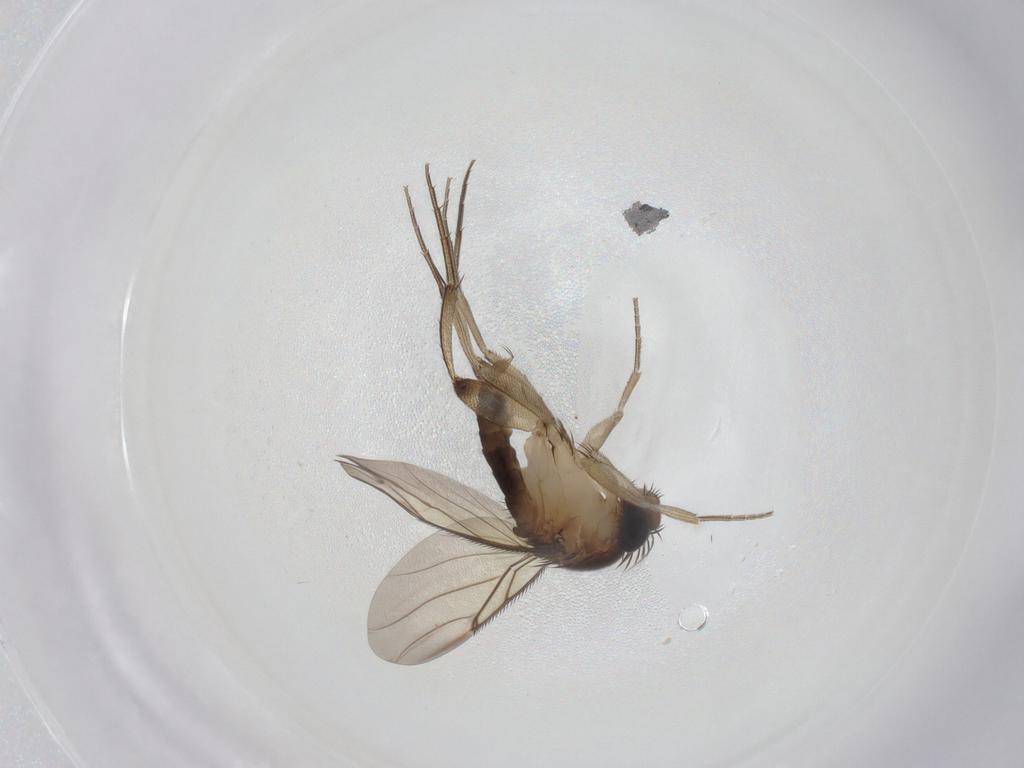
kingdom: Animalia
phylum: Arthropoda
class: Insecta
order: Diptera
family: Phoridae
